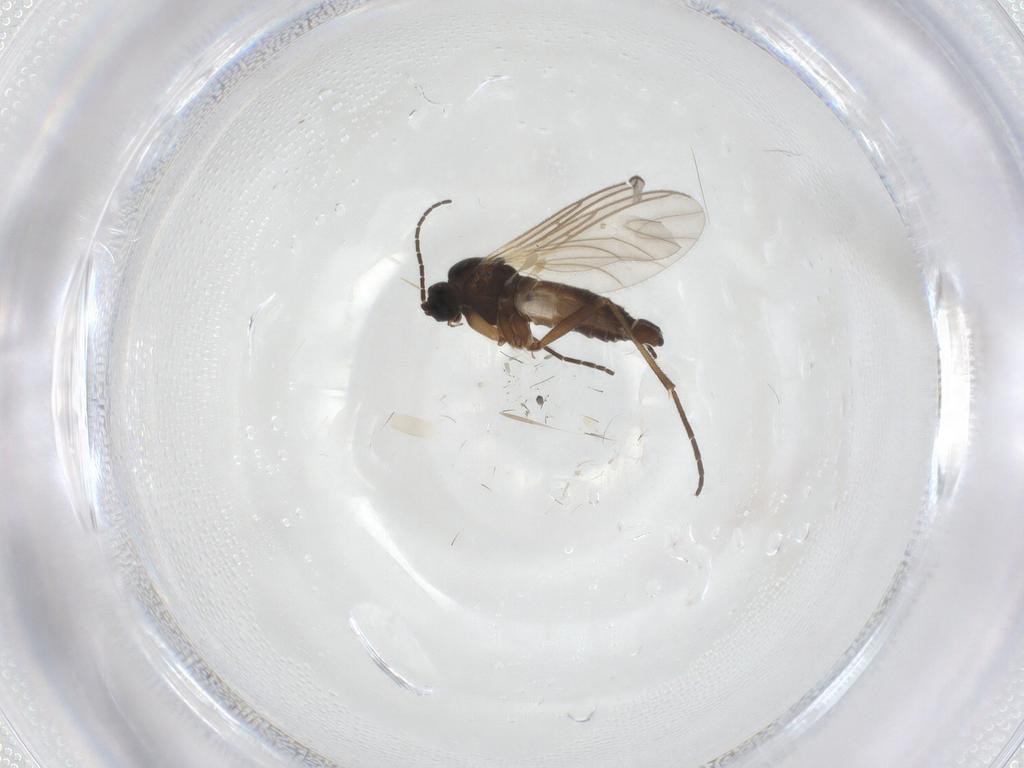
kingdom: Animalia
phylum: Arthropoda
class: Insecta
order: Diptera
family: Sciaridae
